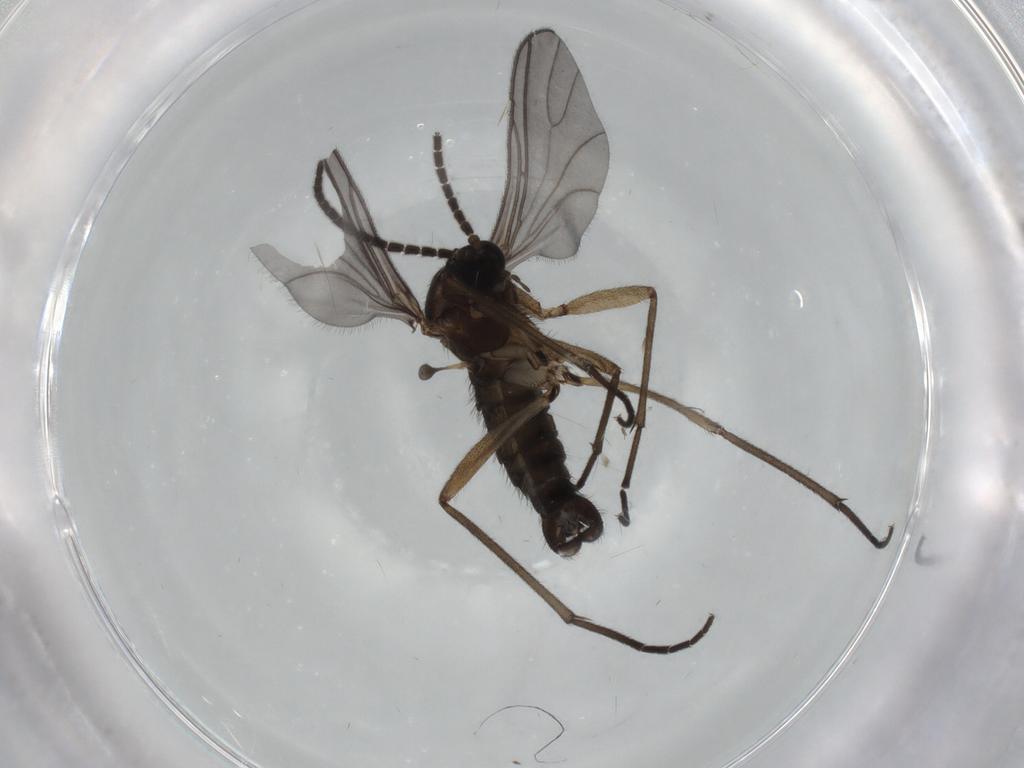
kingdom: Animalia
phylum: Arthropoda
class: Insecta
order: Diptera
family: Sciaridae
